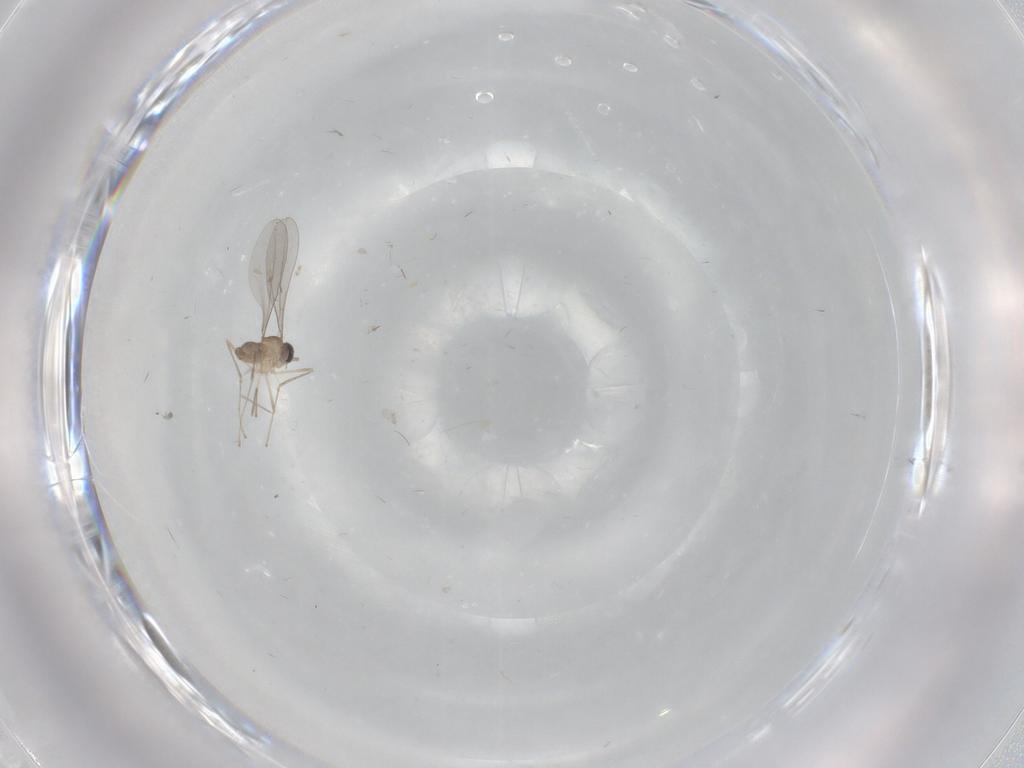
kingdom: Animalia
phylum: Arthropoda
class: Insecta
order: Diptera
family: Cecidomyiidae
